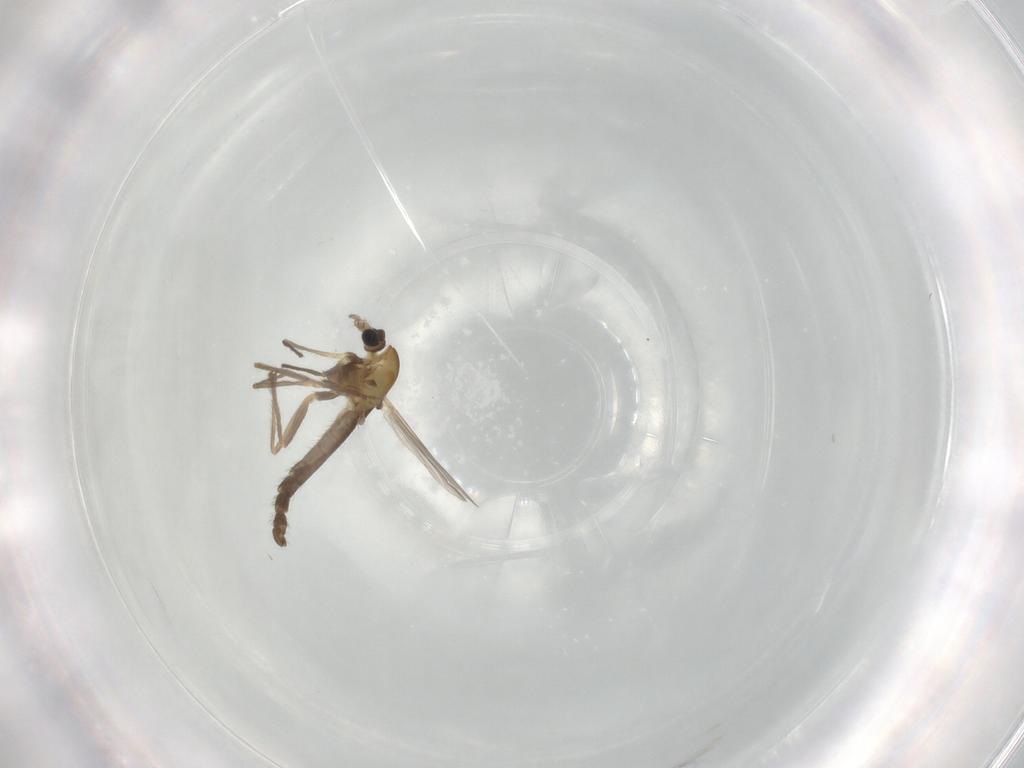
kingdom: Animalia
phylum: Arthropoda
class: Insecta
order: Diptera
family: Chironomidae
